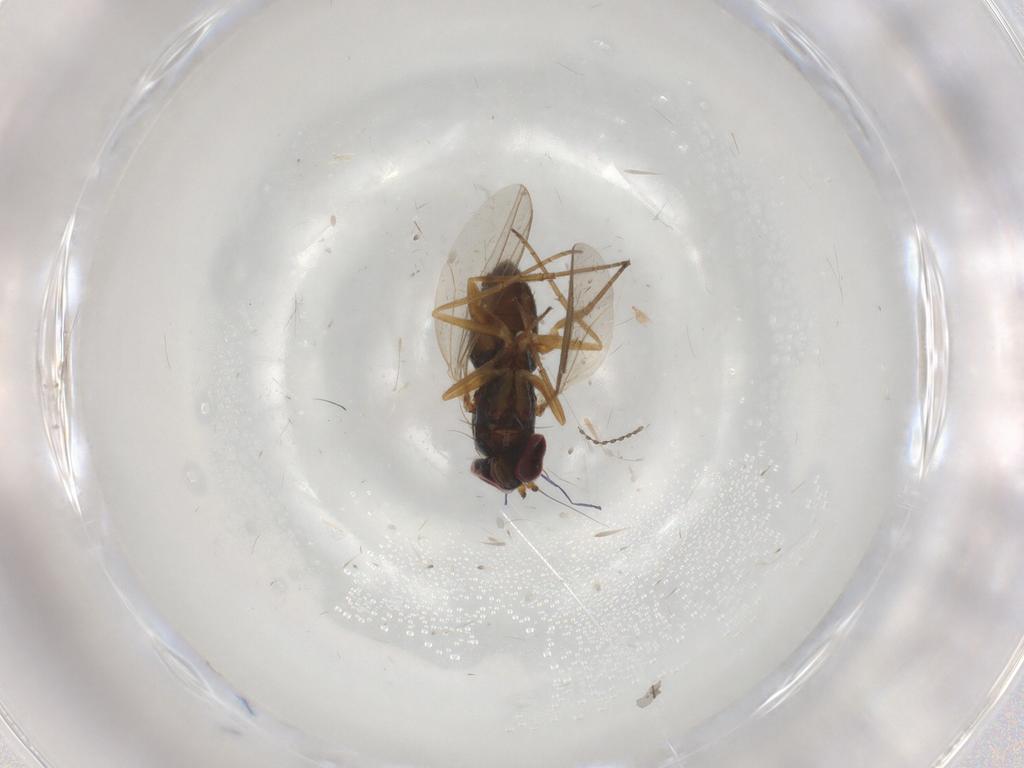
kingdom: Animalia
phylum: Arthropoda
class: Insecta
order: Diptera
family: Dolichopodidae
